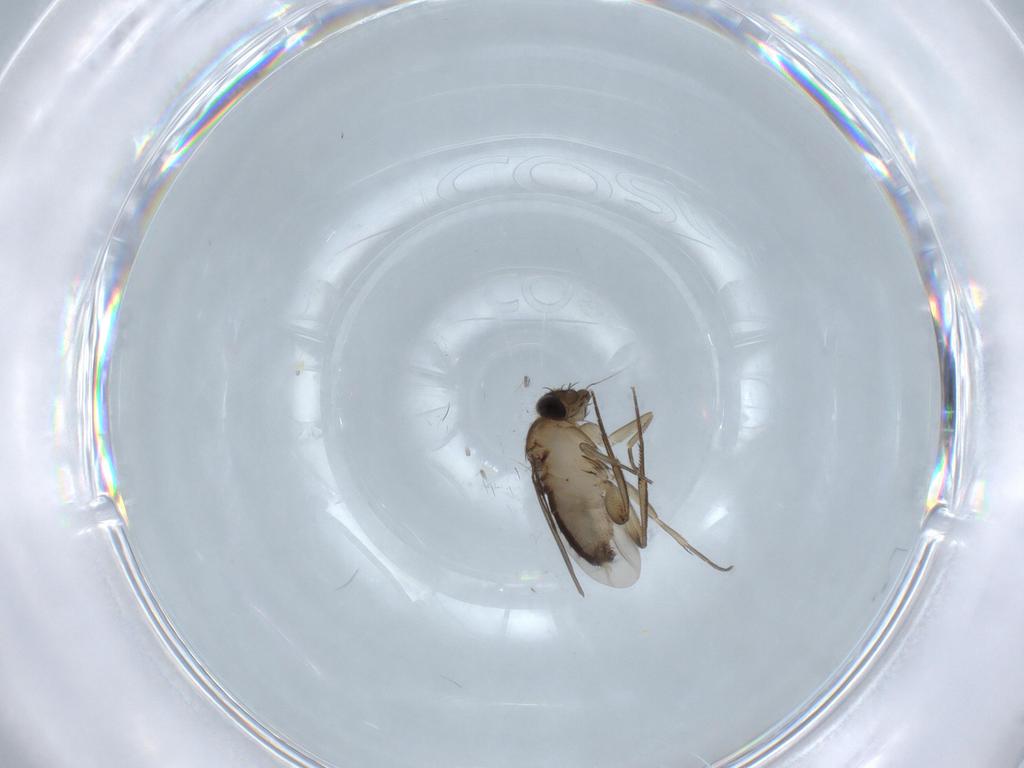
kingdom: Animalia
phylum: Arthropoda
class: Insecta
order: Diptera
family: Phoridae
